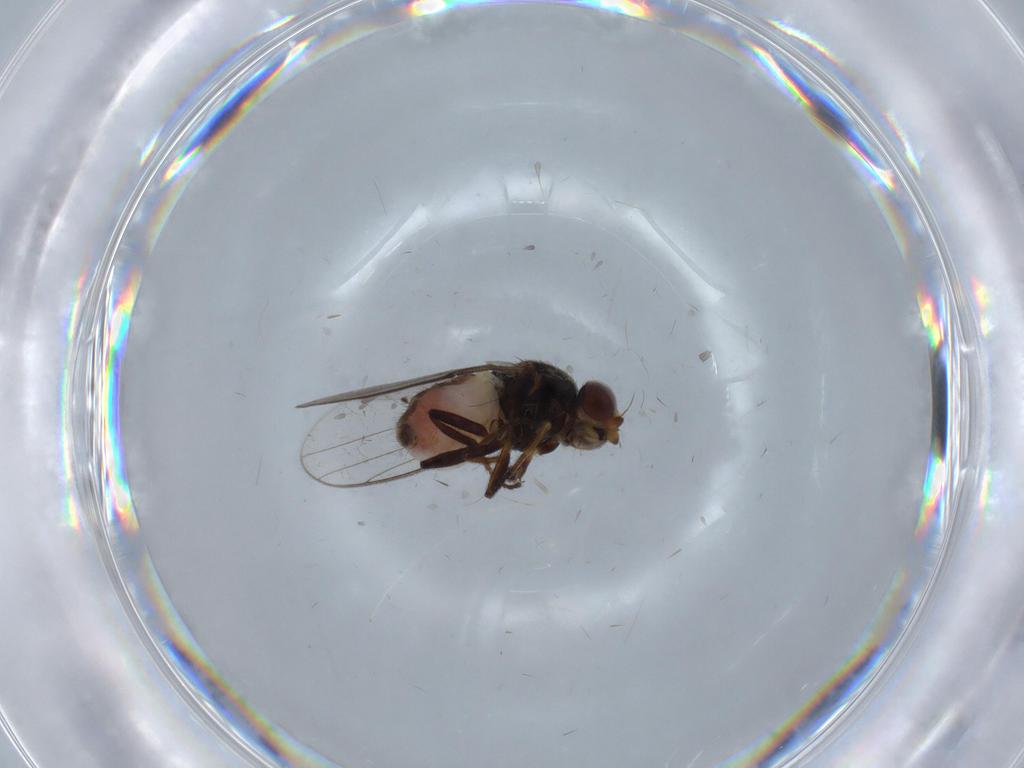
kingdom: Animalia
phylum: Arthropoda
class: Insecta
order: Diptera
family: Chloropidae
